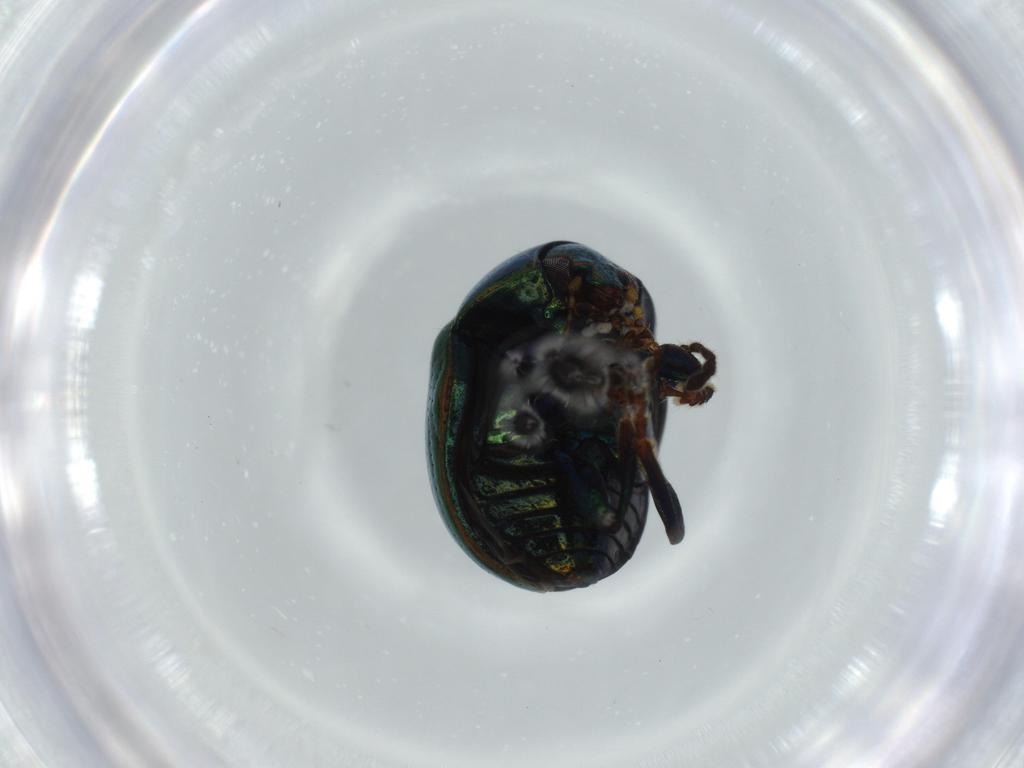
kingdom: Animalia
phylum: Arthropoda
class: Insecta
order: Coleoptera
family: Chrysomelidae
